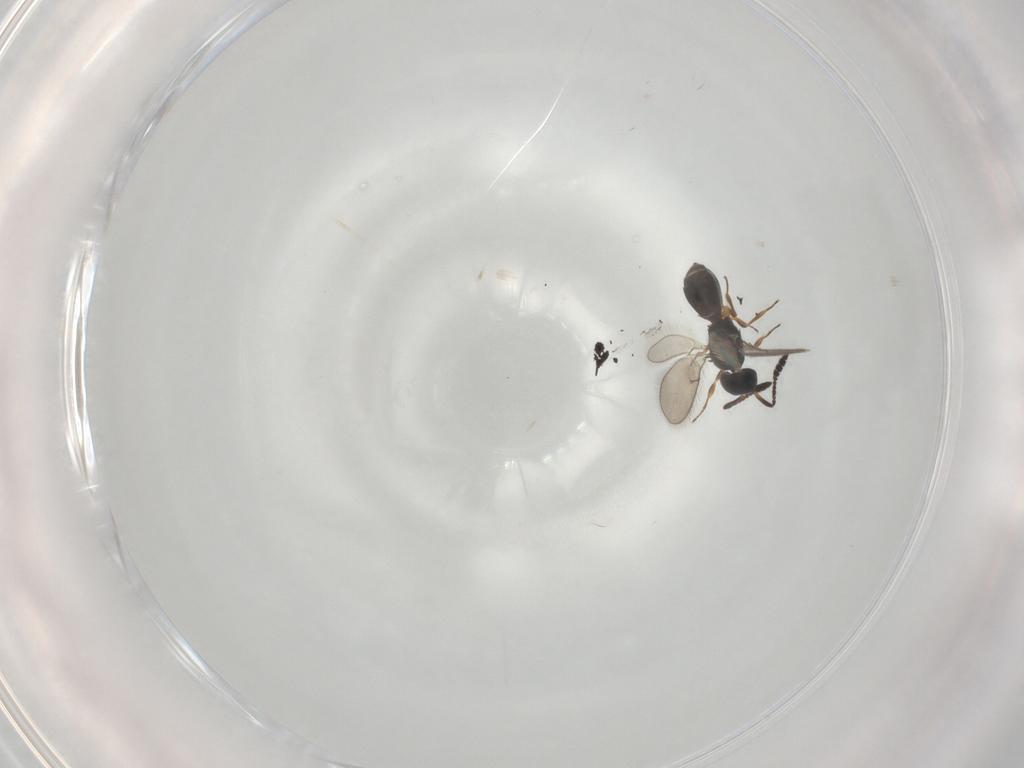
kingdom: Animalia
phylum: Arthropoda
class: Insecta
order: Hymenoptera
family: Scelionidae
